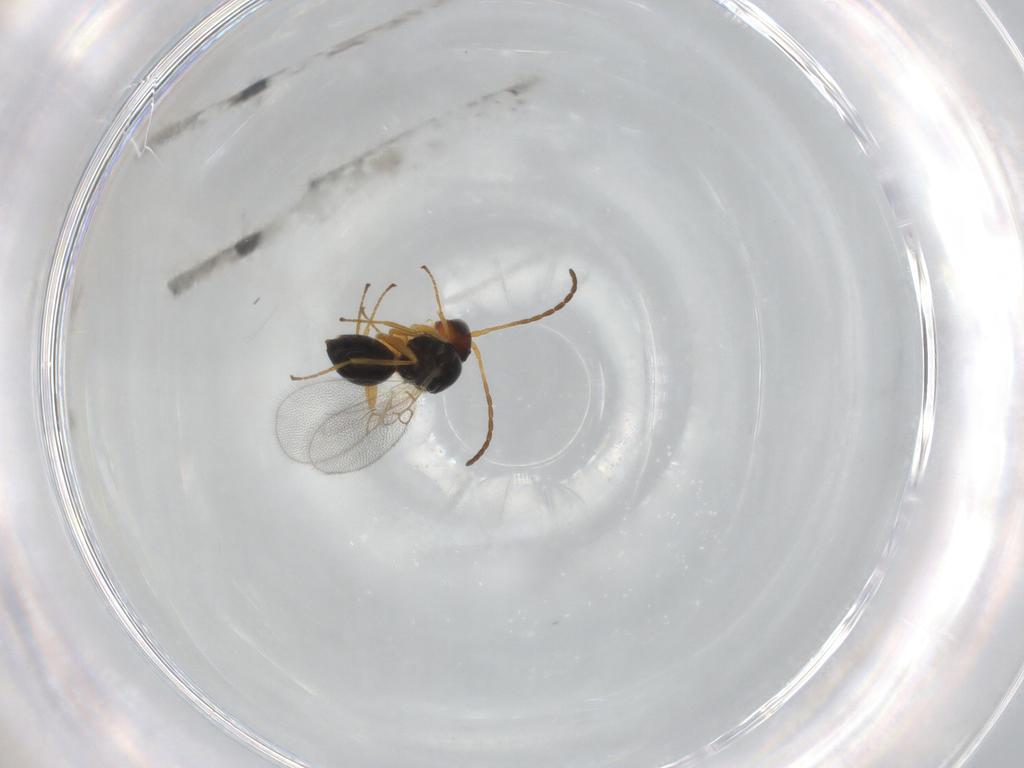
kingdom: Animalia
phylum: Arthropoda
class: Insecta
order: Hymenoptera
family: Figitidae
